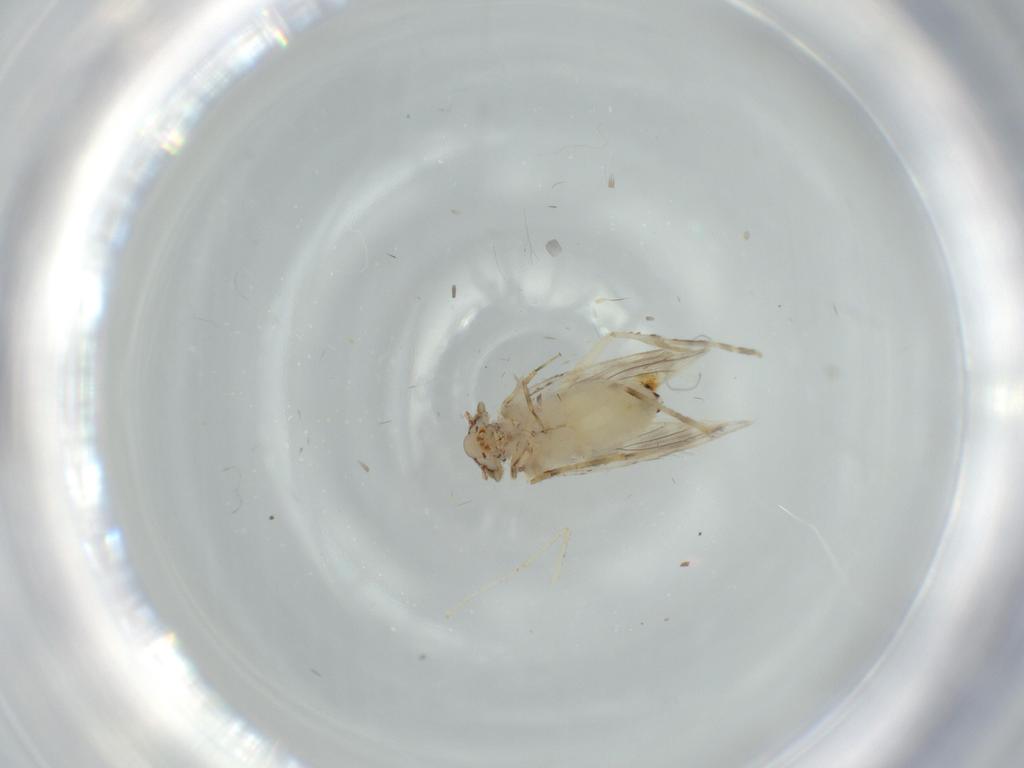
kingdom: Animalia
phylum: Arthropoda
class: Insecta
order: Psocodea
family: Lepidopsocidae
